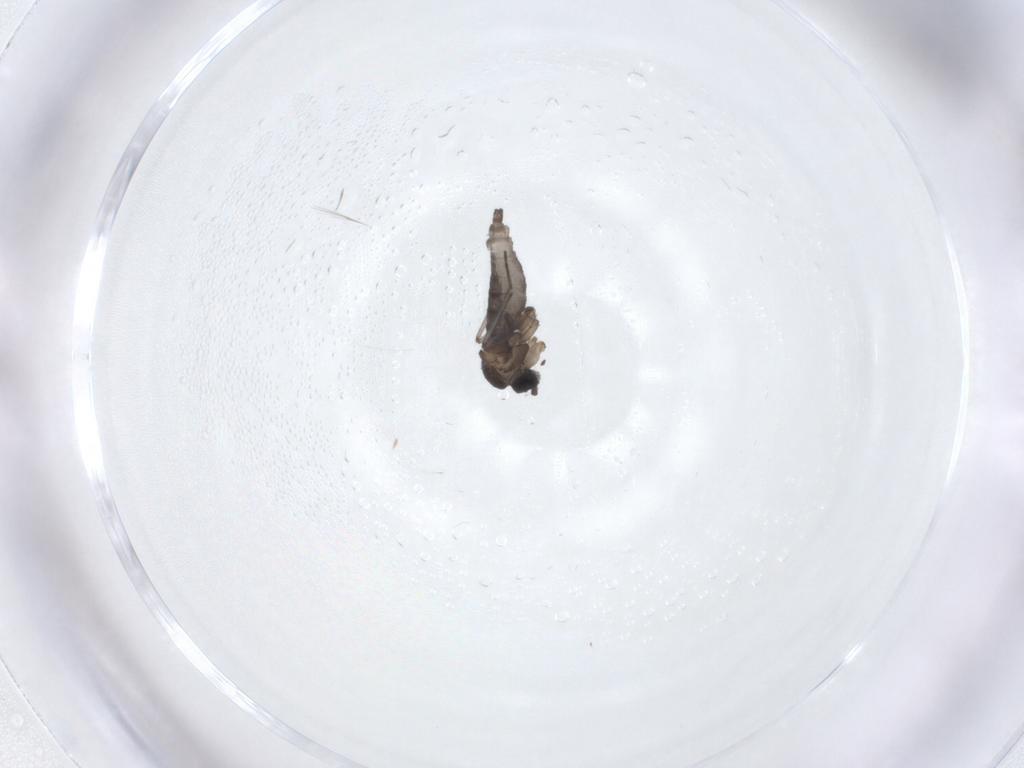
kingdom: Animalia
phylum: Arthropoda
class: Insecta
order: Diptera
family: Sciaridae
